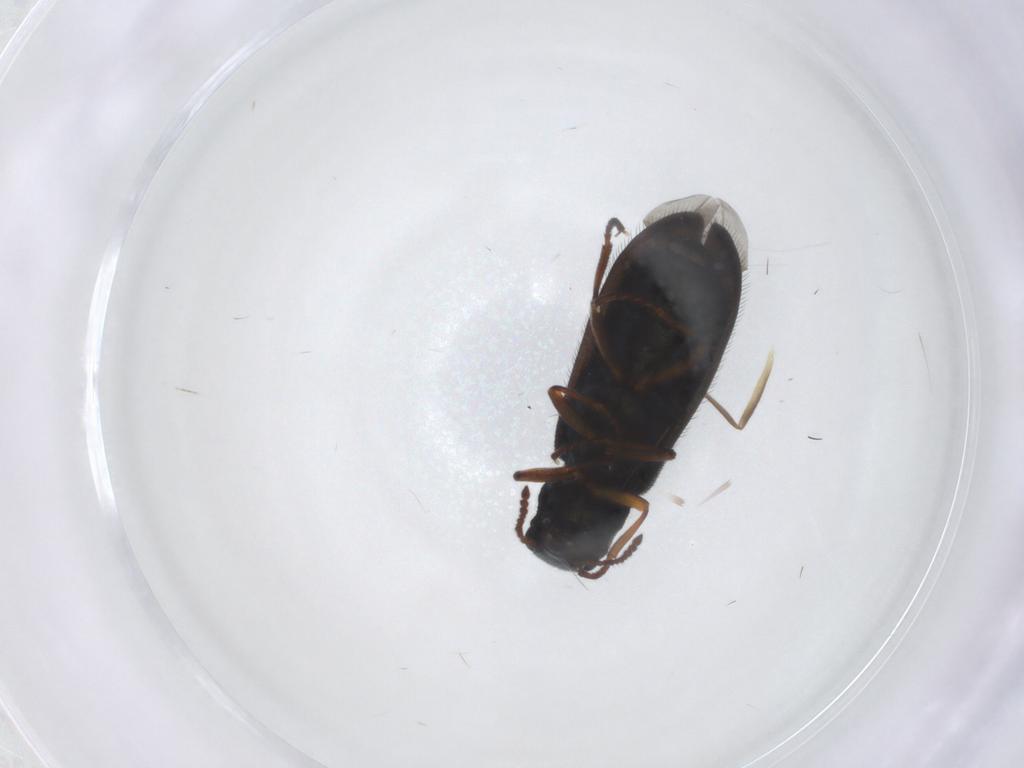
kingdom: Animalia
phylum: Arthropoda
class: Insecta
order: Coleoptera
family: Melyridae
